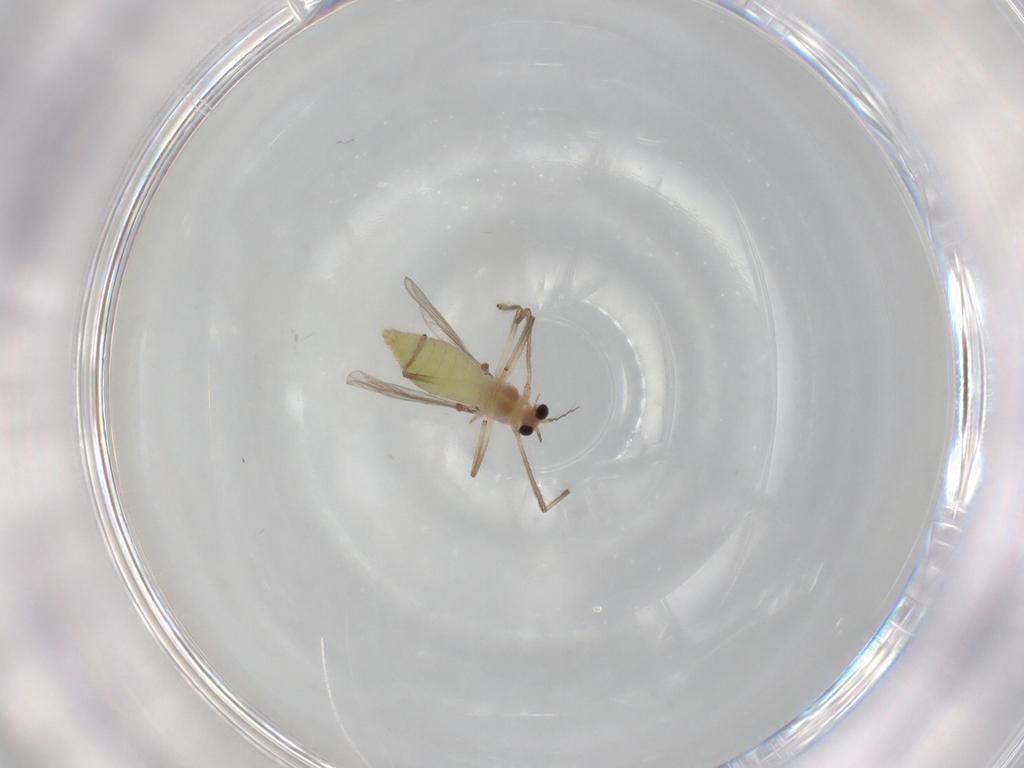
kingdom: Animalia
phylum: Arthropoda
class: Insecta
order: Diptera
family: Chironomidae
